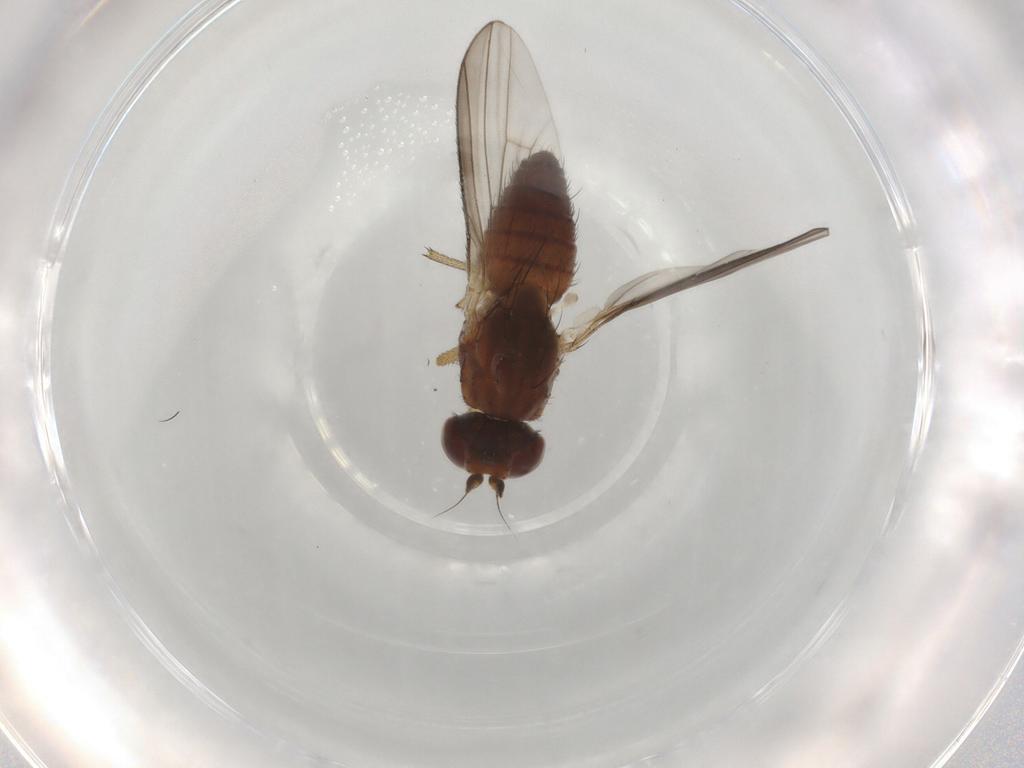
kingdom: Animalia
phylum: Arthropoda
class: Insecta
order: Diptera
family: Heleomyzidae
